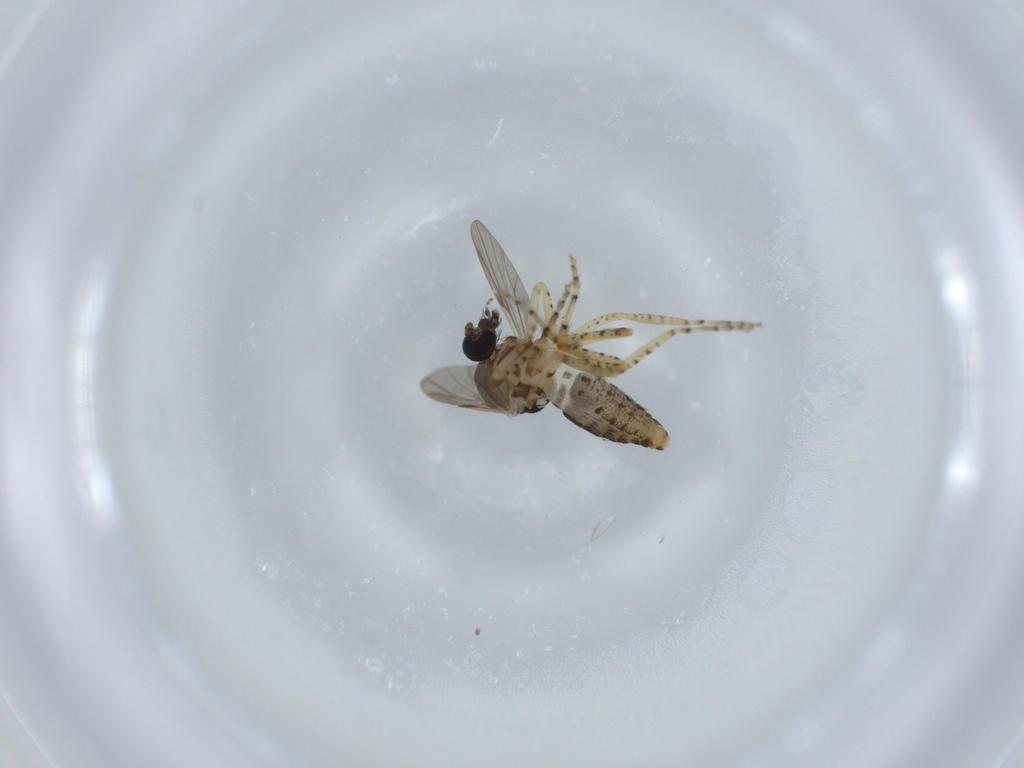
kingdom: Animalia
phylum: Arthropoda
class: Insecta
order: Diptera
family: Ceratopogonidae
